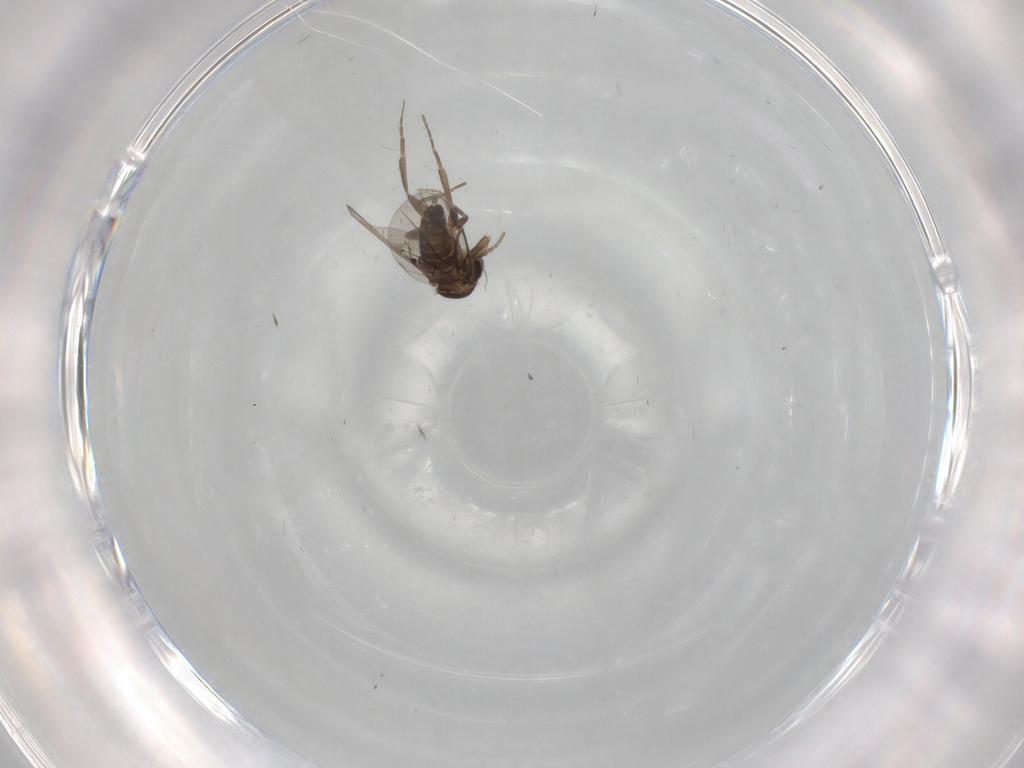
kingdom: Animalia
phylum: Arthropoda
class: Insecta
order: Diptera
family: Phoridae
